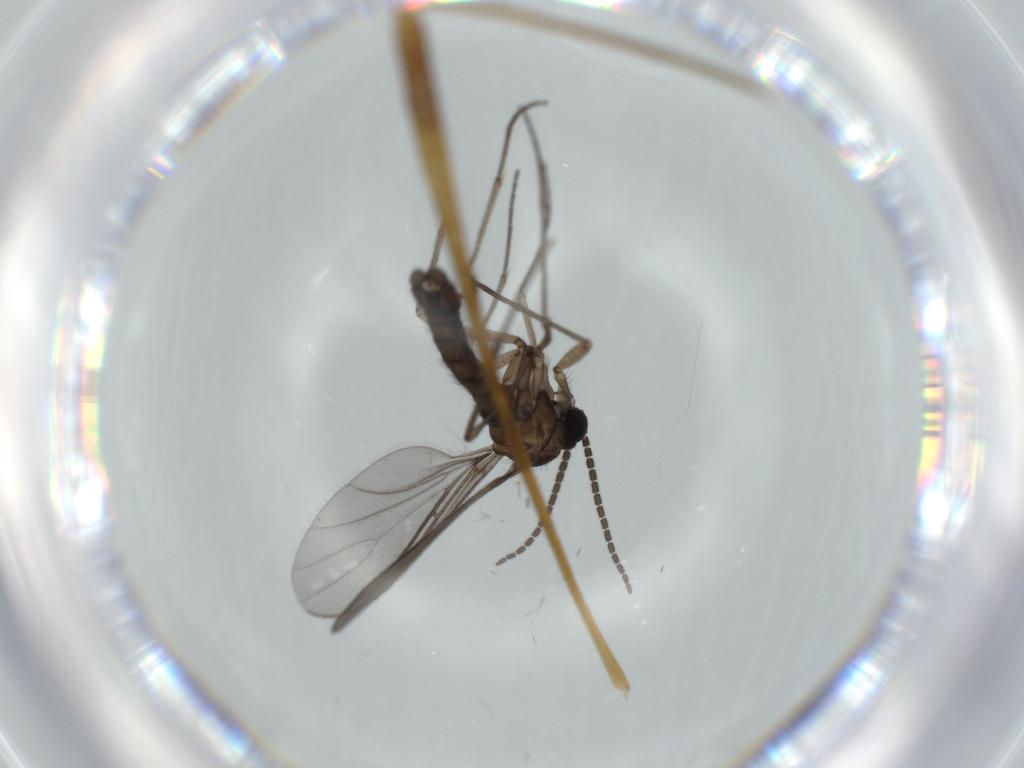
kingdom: Animalia
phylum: Arthropoda
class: Insecta
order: Diptera
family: Sciaridae
